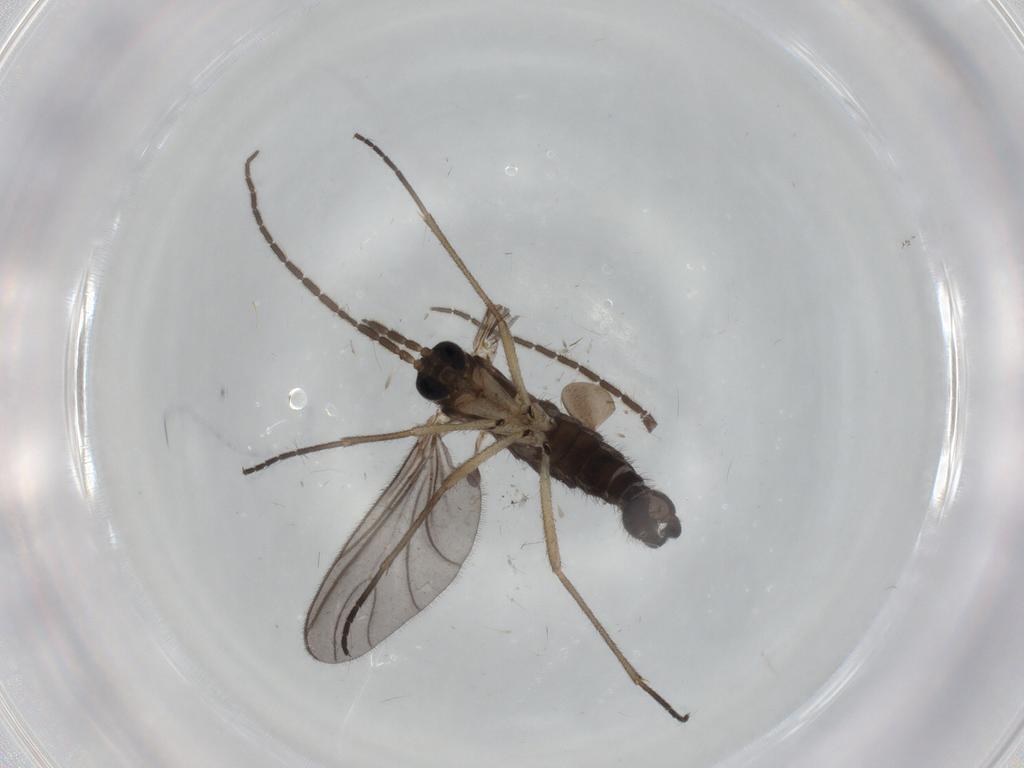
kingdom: Animalia
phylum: Arthropoda
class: Insecta
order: Diptera
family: Sciaridae
